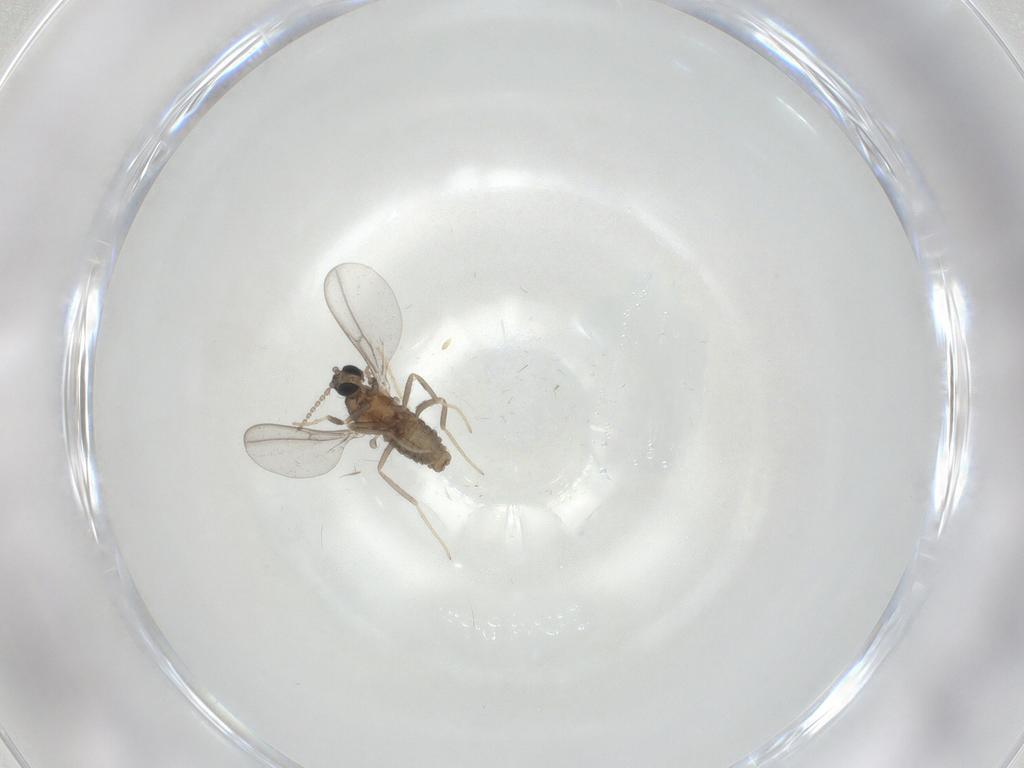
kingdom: Animalia
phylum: Arthropoda
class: Insecta
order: Diptera
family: Cecidomyiidae
